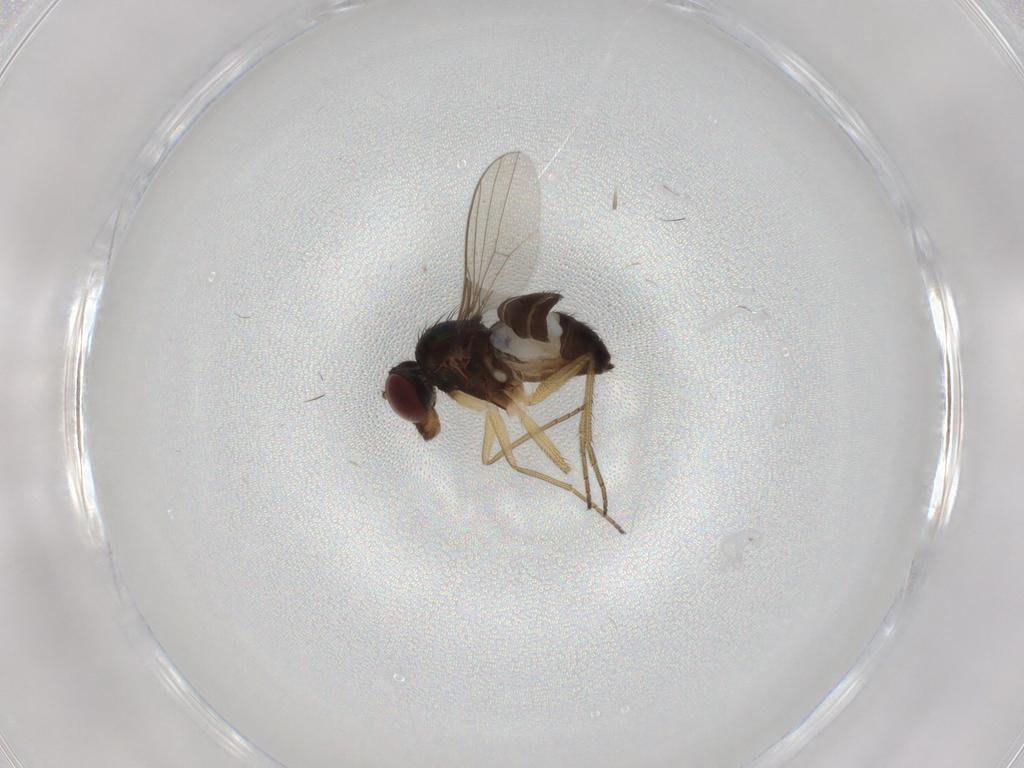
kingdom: Animalia
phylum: Arthropoda
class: Insecta
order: Diptera
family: Dolichopodidae
